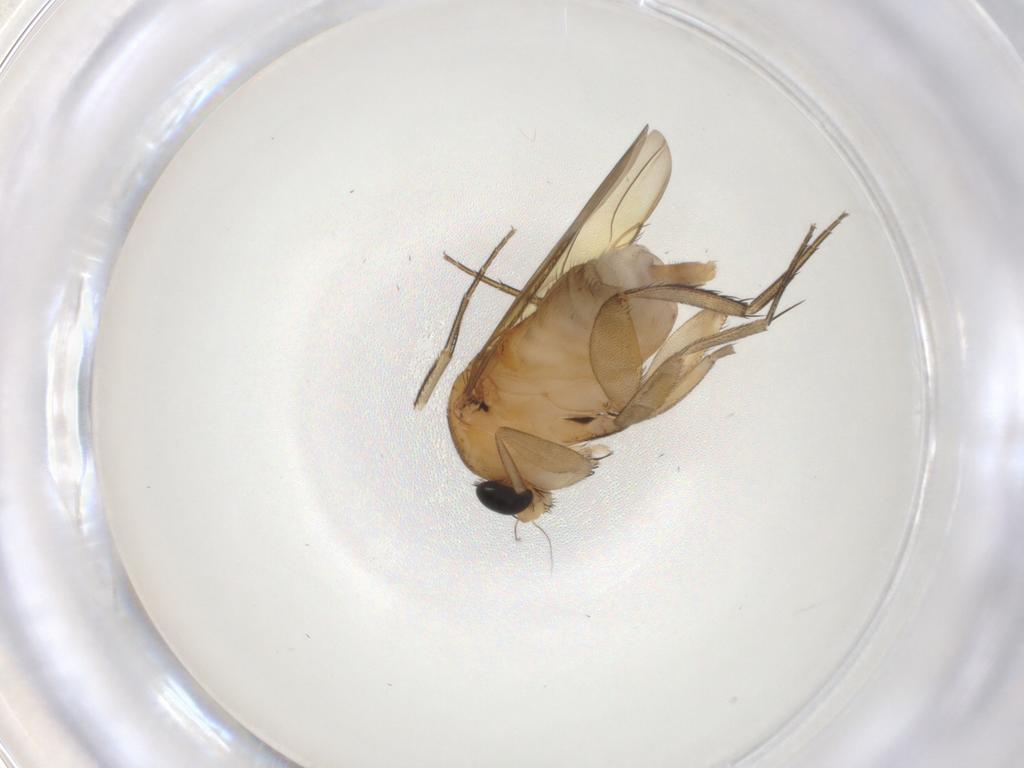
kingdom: Animalia
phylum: Arthropoda
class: Insecta
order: Diptera
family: Phoridae
